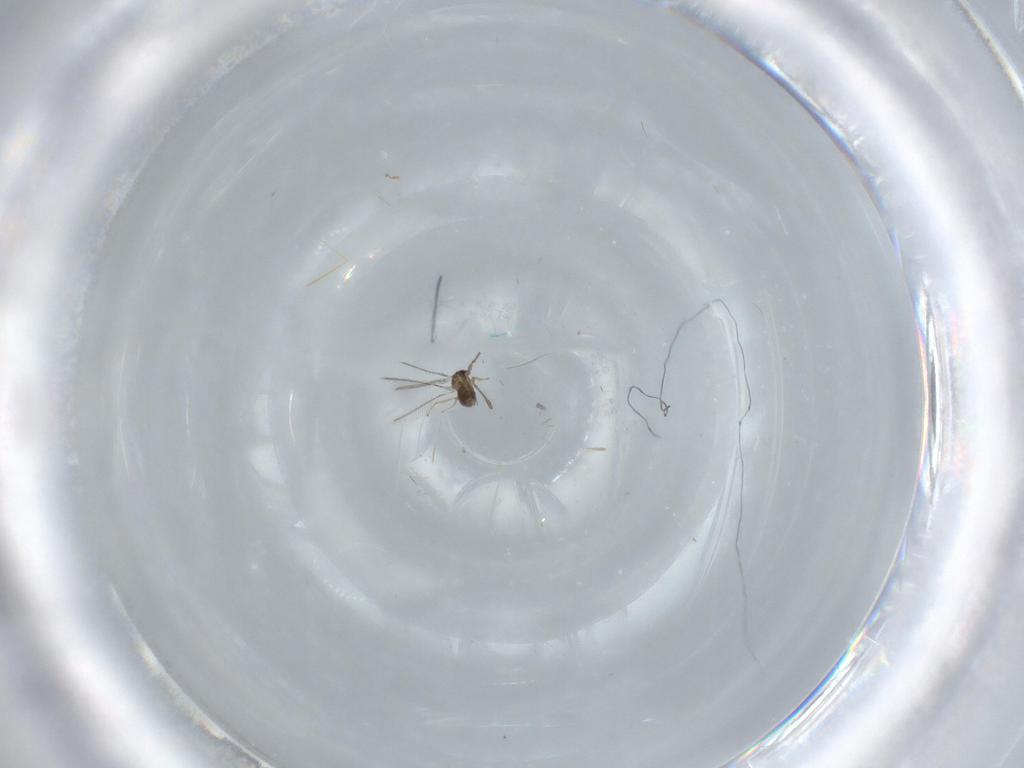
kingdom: Animalia
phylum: Arthropoda
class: Insecta
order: Hymenoptera
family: Mymaridae
